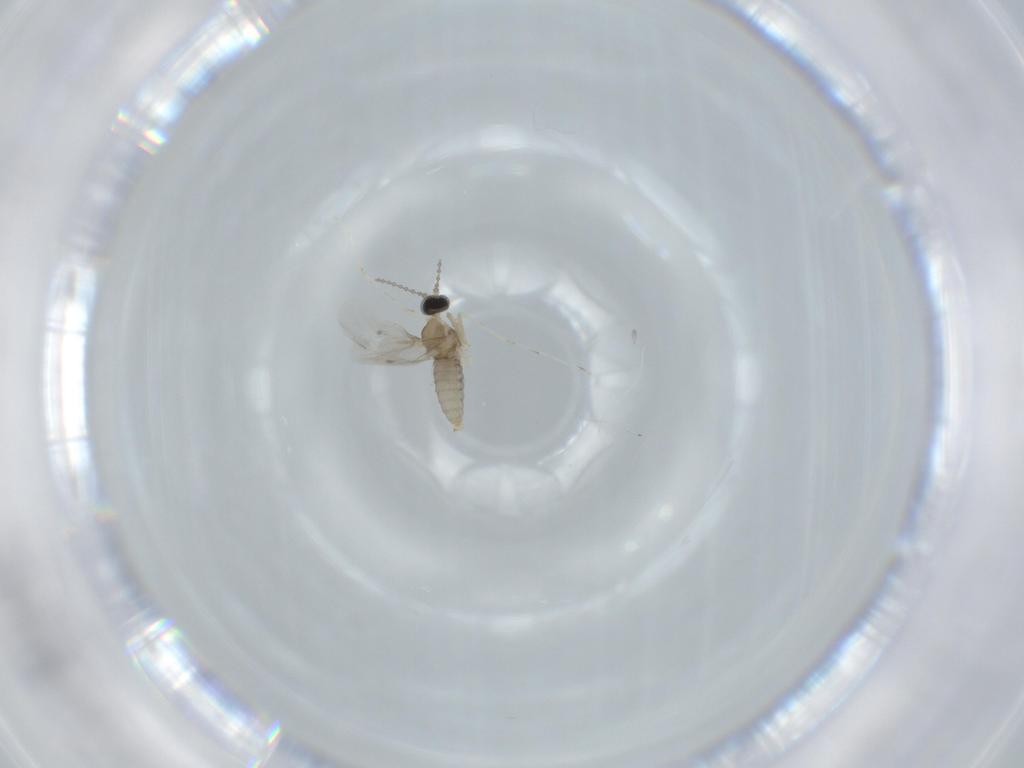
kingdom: Animalia
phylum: Arthropoda
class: Insecta
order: Diptera
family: Cecidomyiidae
